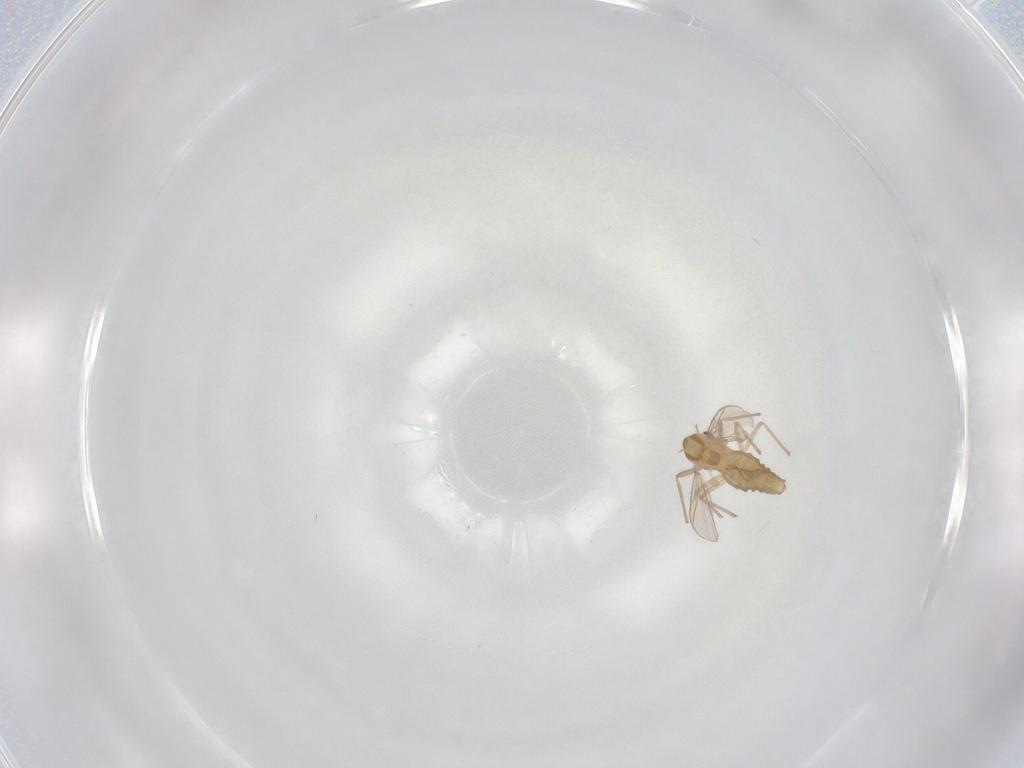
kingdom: Animalia
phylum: Arthropoda
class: Insecta
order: Diptera
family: Chironomidae
